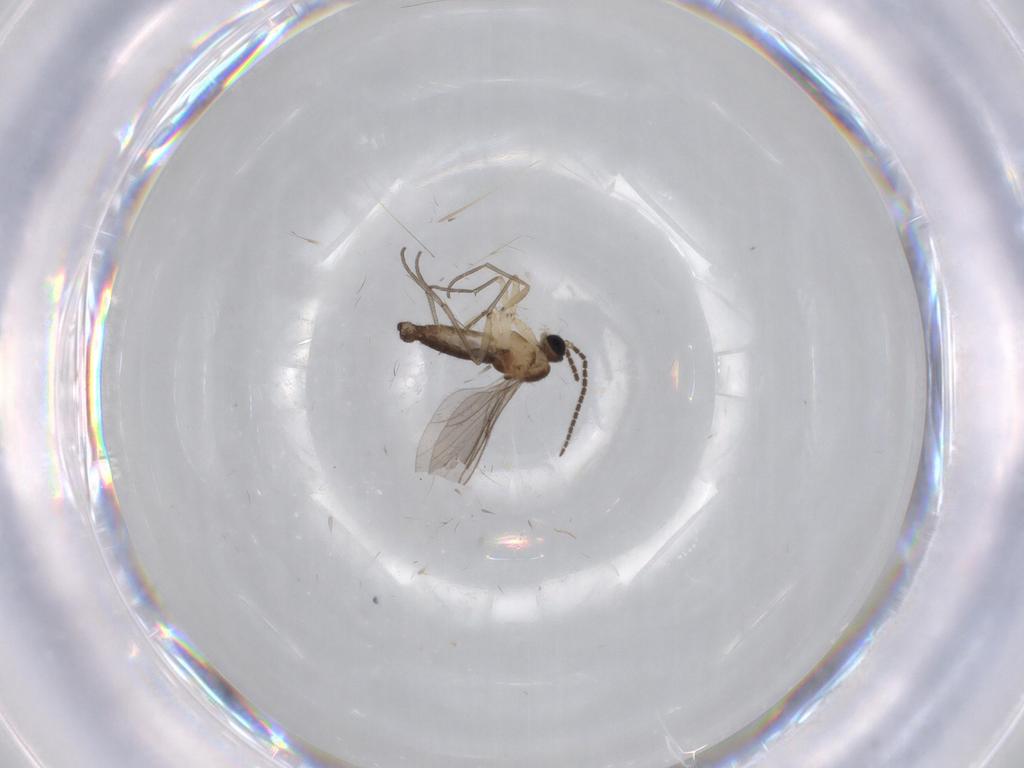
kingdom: Animalia
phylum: Arthropoda
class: Insecta
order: Diptera
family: Sciaridae
